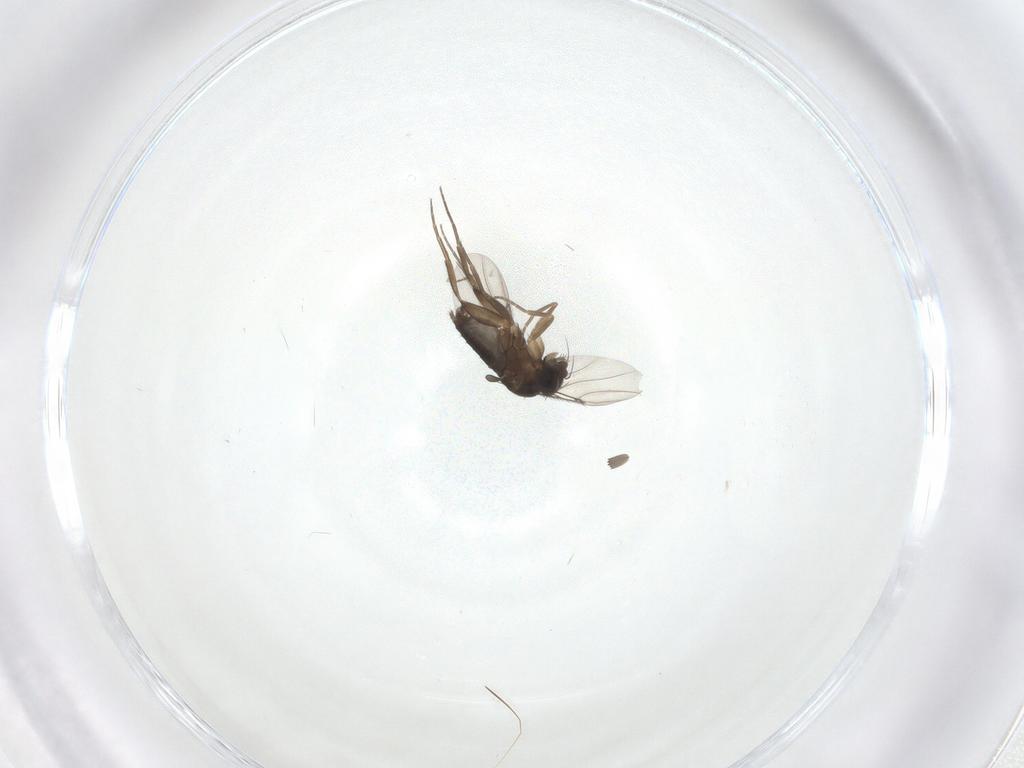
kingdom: Animalia
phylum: Arthropoda
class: Insecta
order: Diptera
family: Phoridae
